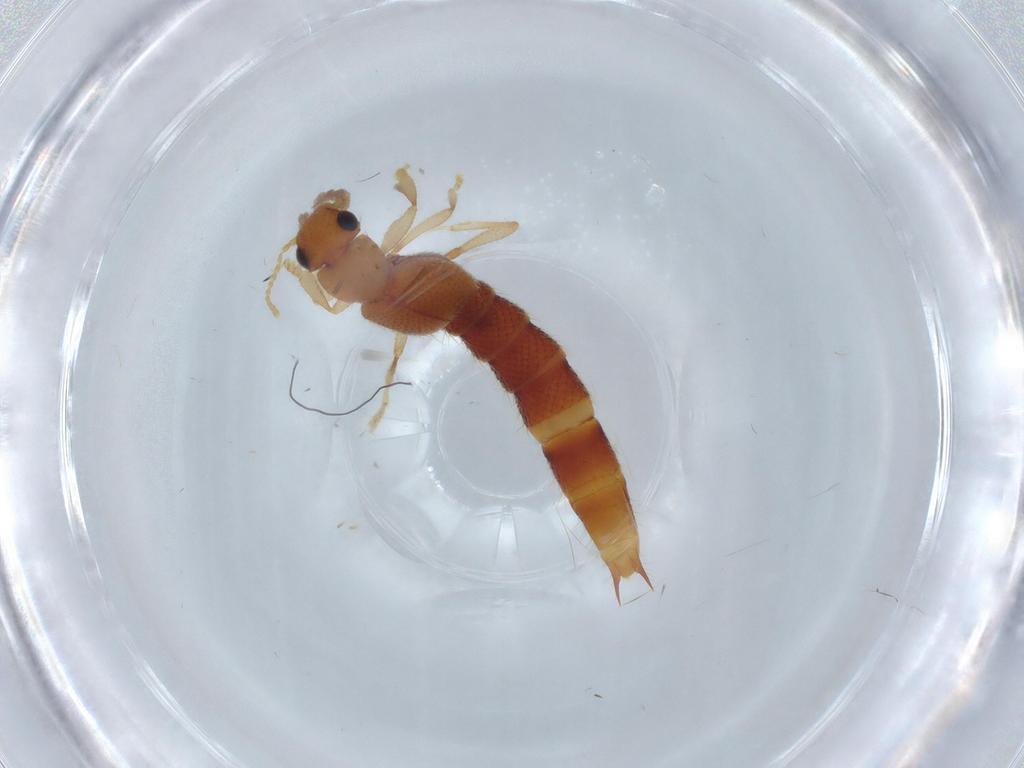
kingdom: Animalia
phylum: Arthropoda
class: Insecta
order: Coleoptera
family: Staphylinidae
